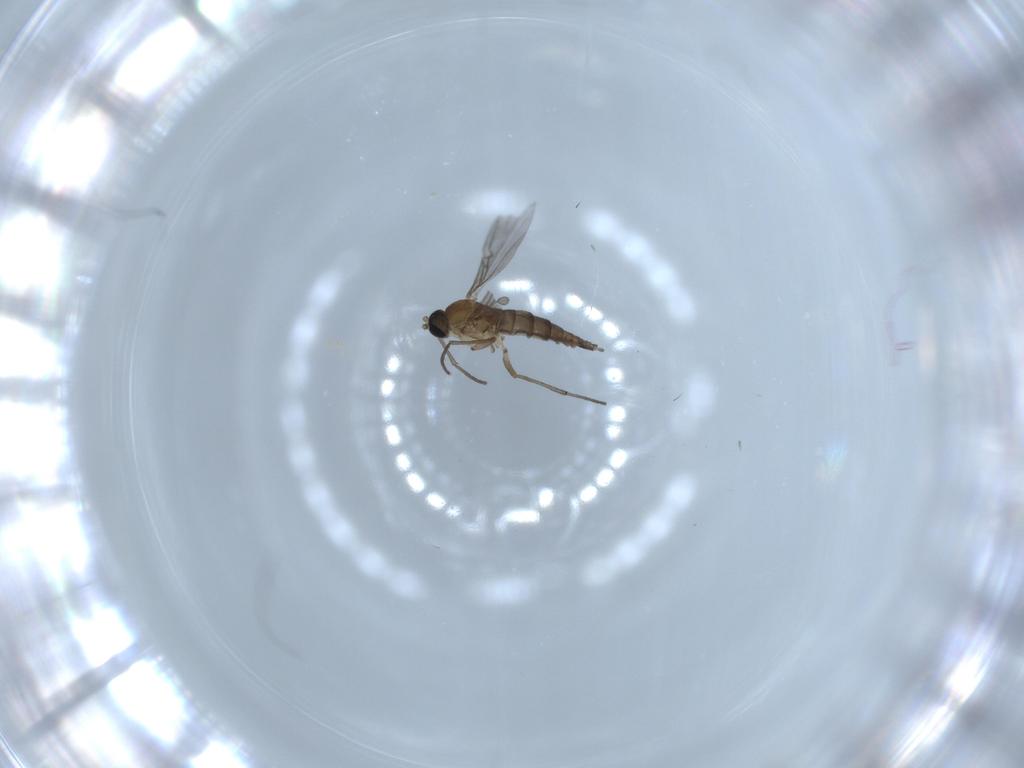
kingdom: Animalia
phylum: Arthropoda
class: Insecta
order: Diptera
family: Sciaridae
